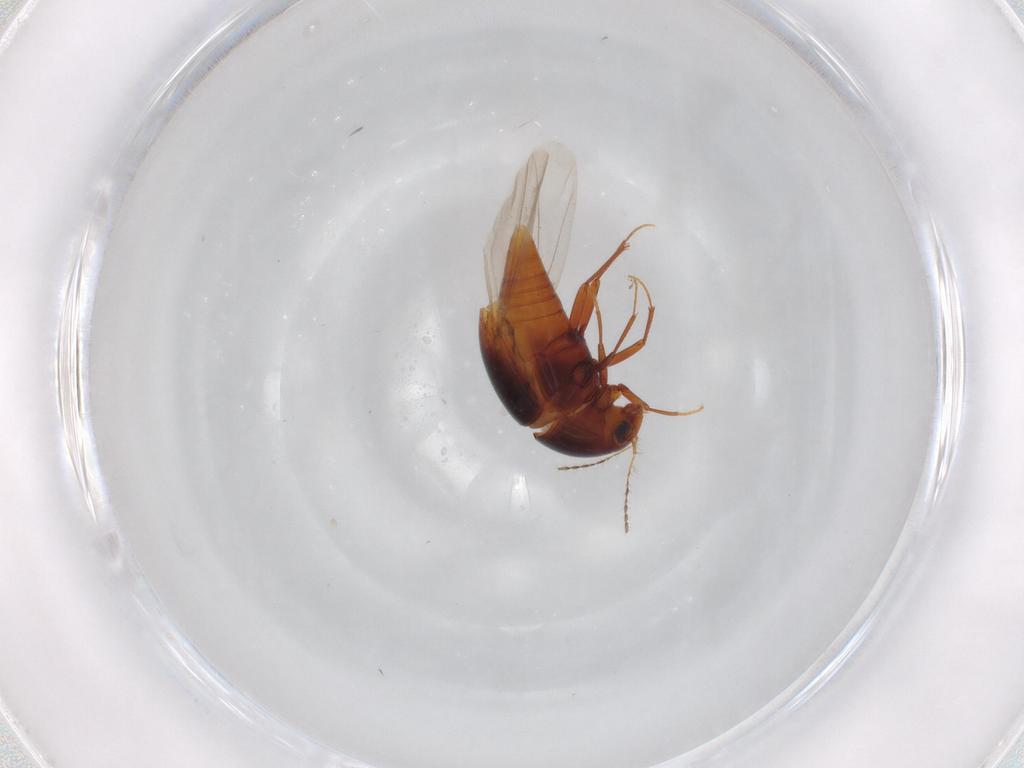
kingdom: Animalia
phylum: Arthropoda
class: Insecta
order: Coleoptera
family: Staphylinidae
